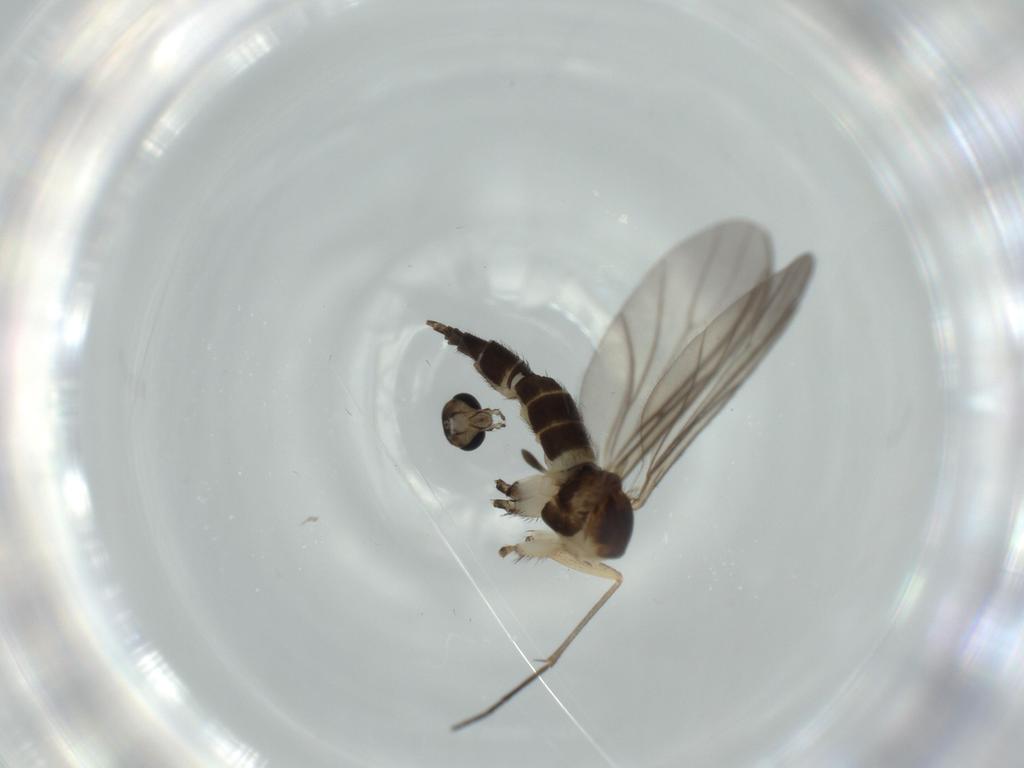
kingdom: Animalia
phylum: Arthropoda
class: Insecta
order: Diptera
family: Sciaridae
